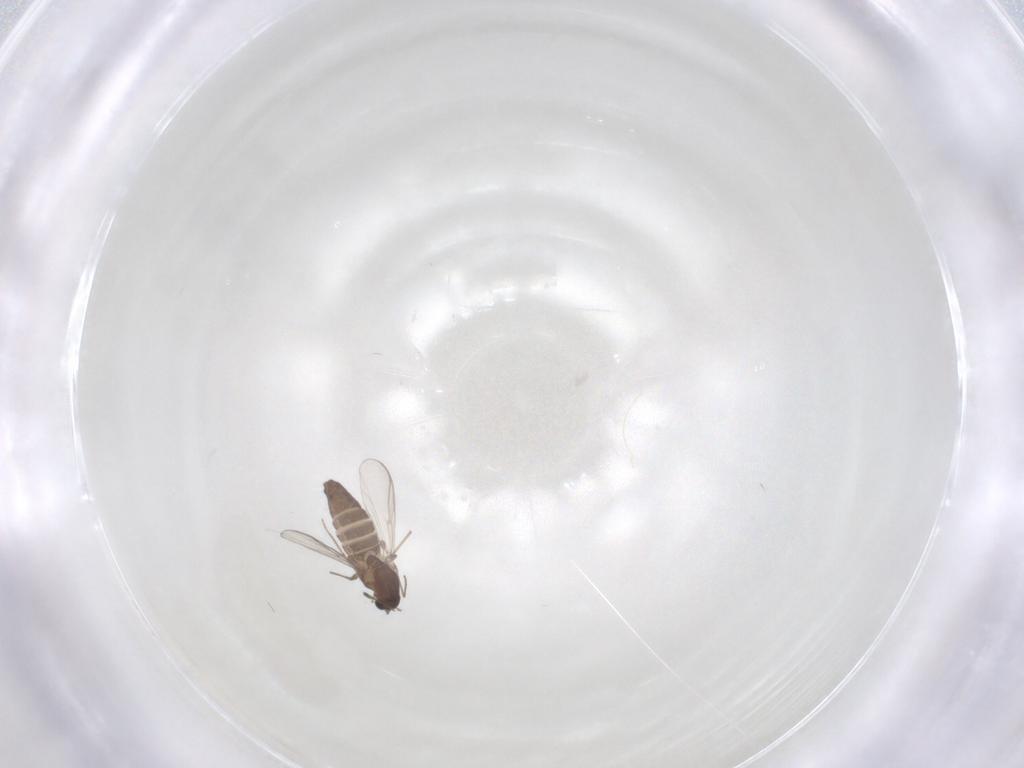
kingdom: Animalia
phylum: Arthropoda
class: Insecta
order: Diptera
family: Chironomidae
